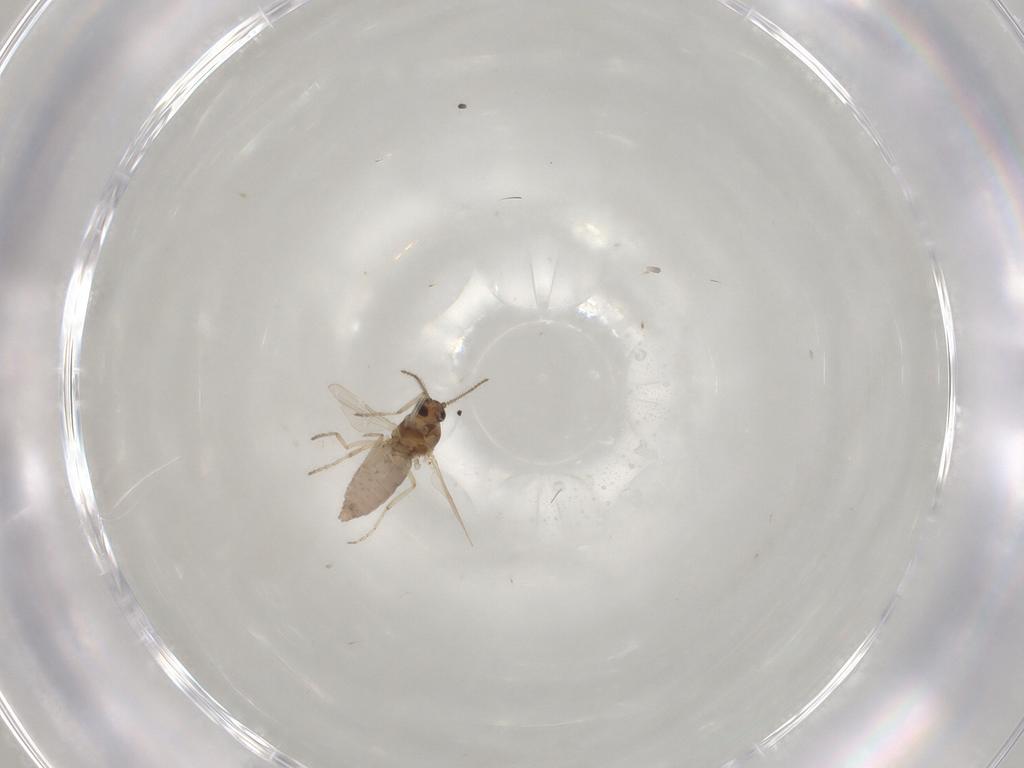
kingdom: Animalia
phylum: Arthropoda
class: Insecta
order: Diptera
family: Ceratopogonidae
